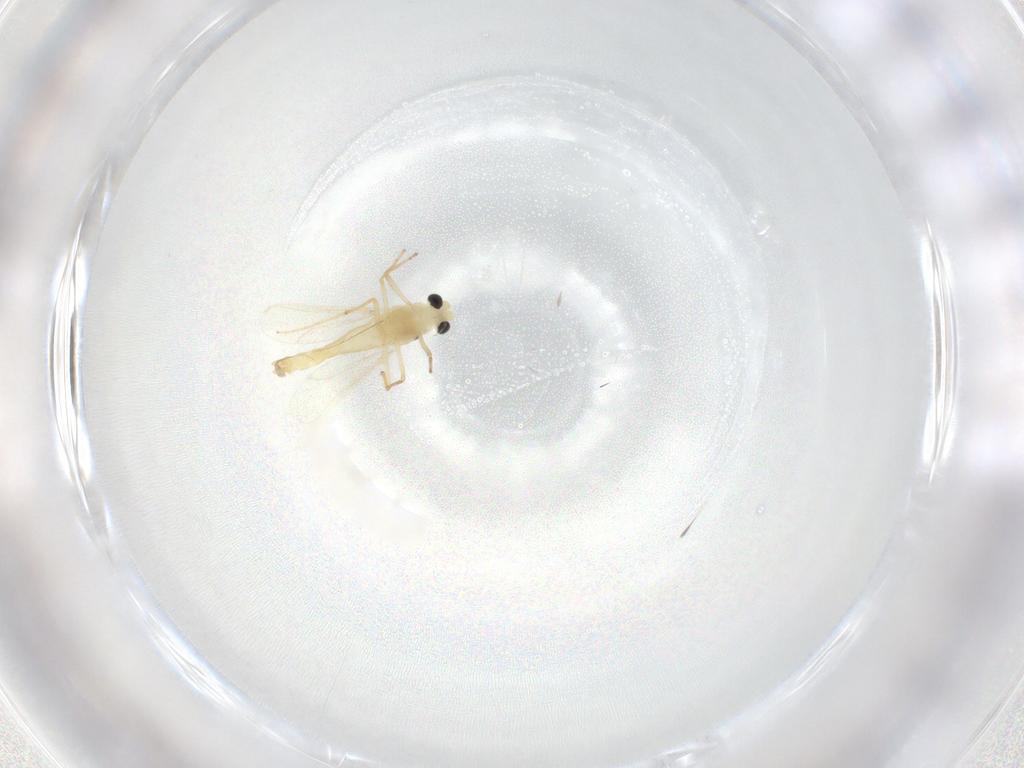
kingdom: Animalia
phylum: Arthropoda
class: Insecta
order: Diptera
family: Chironomidae
